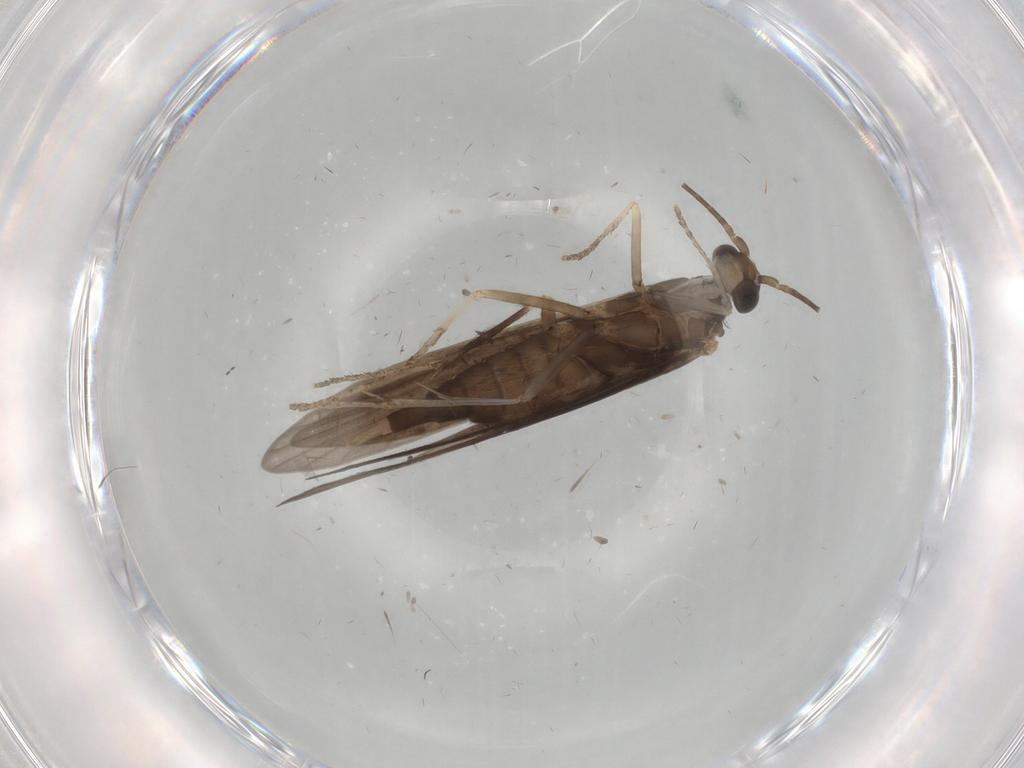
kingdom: Animalia
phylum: Arthropoda
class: Insecta
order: Trichoptera
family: Xiphocentronidae
